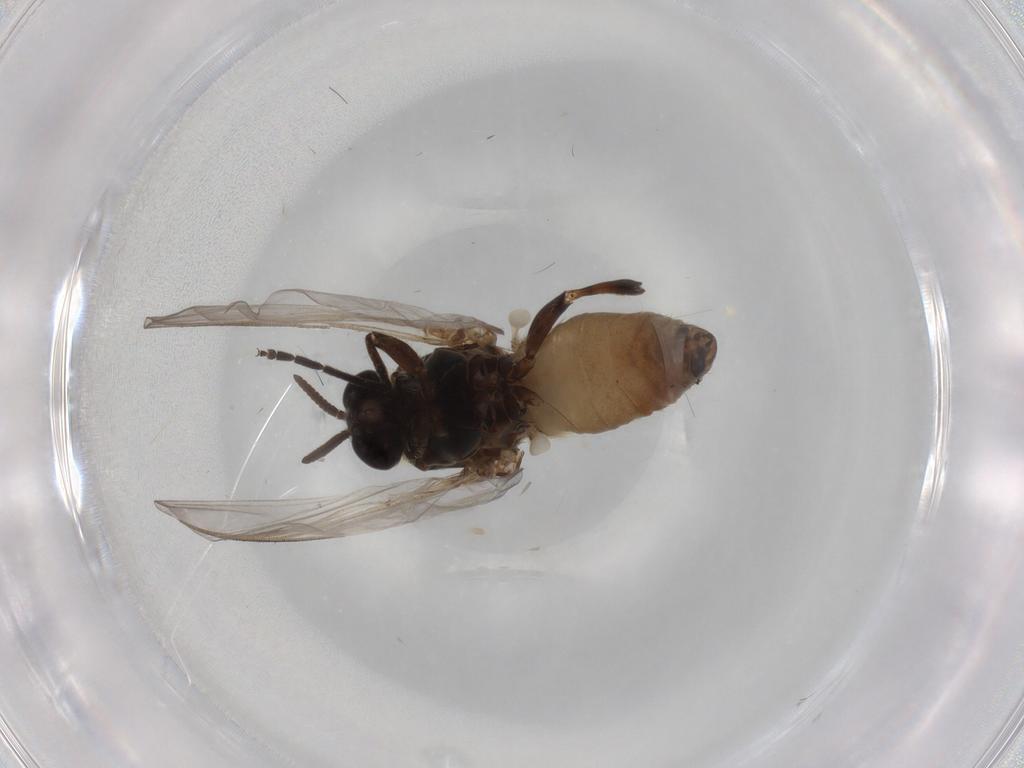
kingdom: Animalia
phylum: Arthropoda
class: Insecta
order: Diptera
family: Simuliidae
